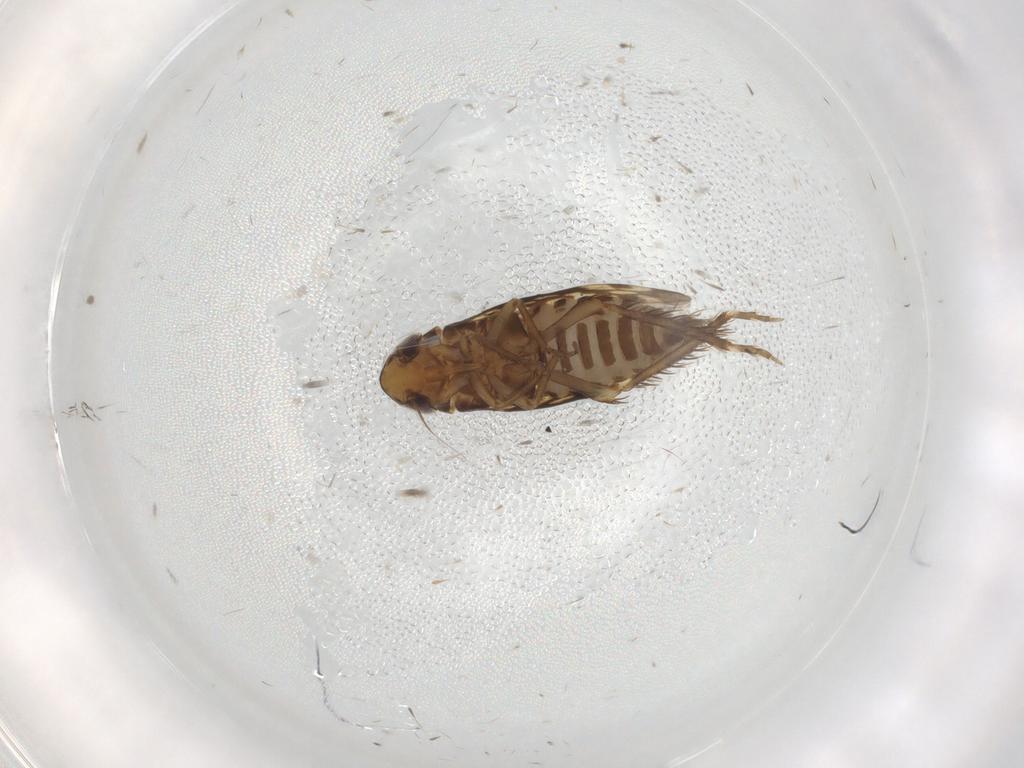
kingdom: Animalia
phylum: Arthropoda
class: Insecta
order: Hemiptera
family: Cicadellidae
